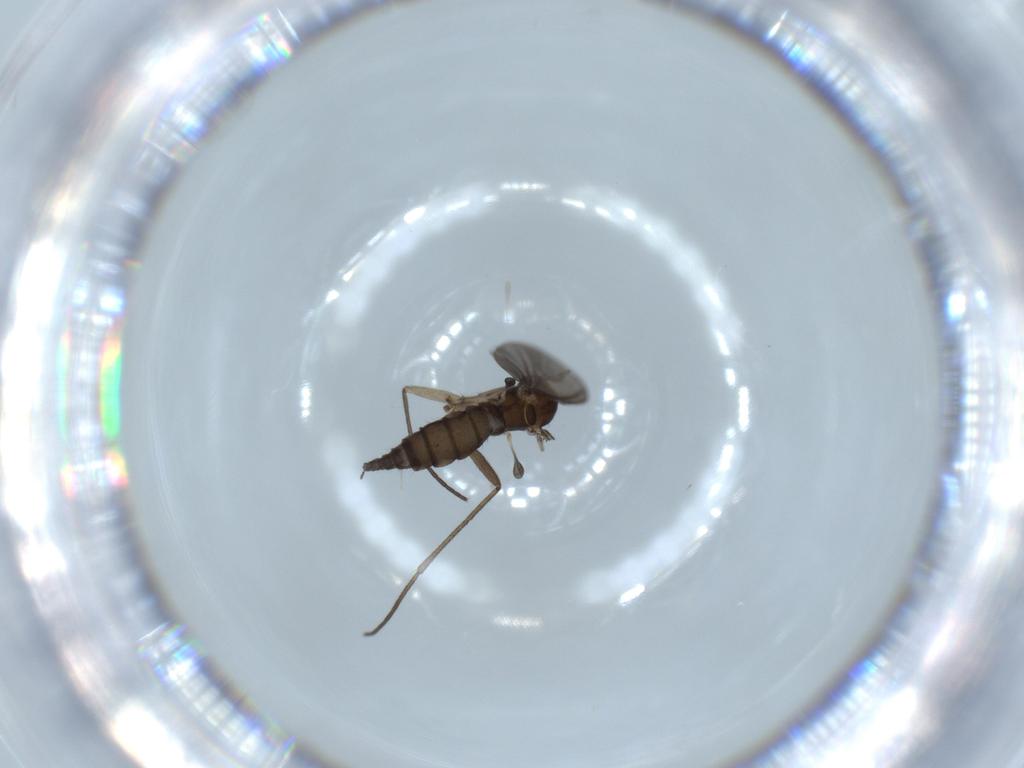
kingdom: Animalia
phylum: Arthropoda
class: Insecta
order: Diptera
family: Sciaridae
